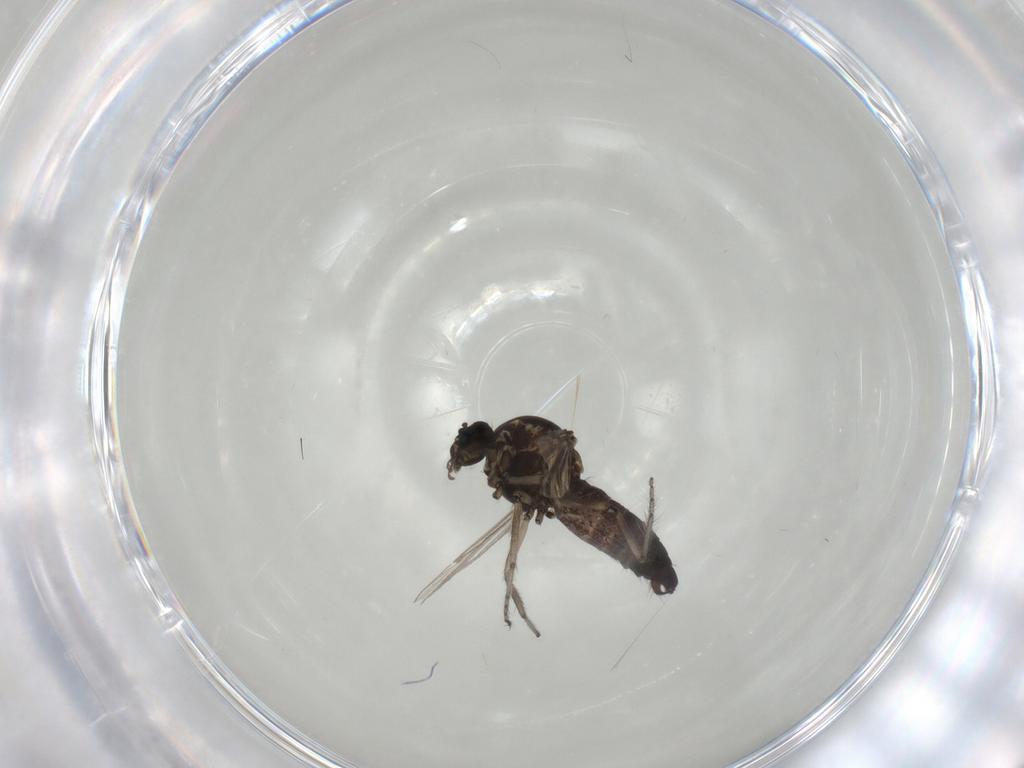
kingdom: Animalia
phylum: Arthropoda
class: Insecta
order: Diptera
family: Ceratopogonidae
